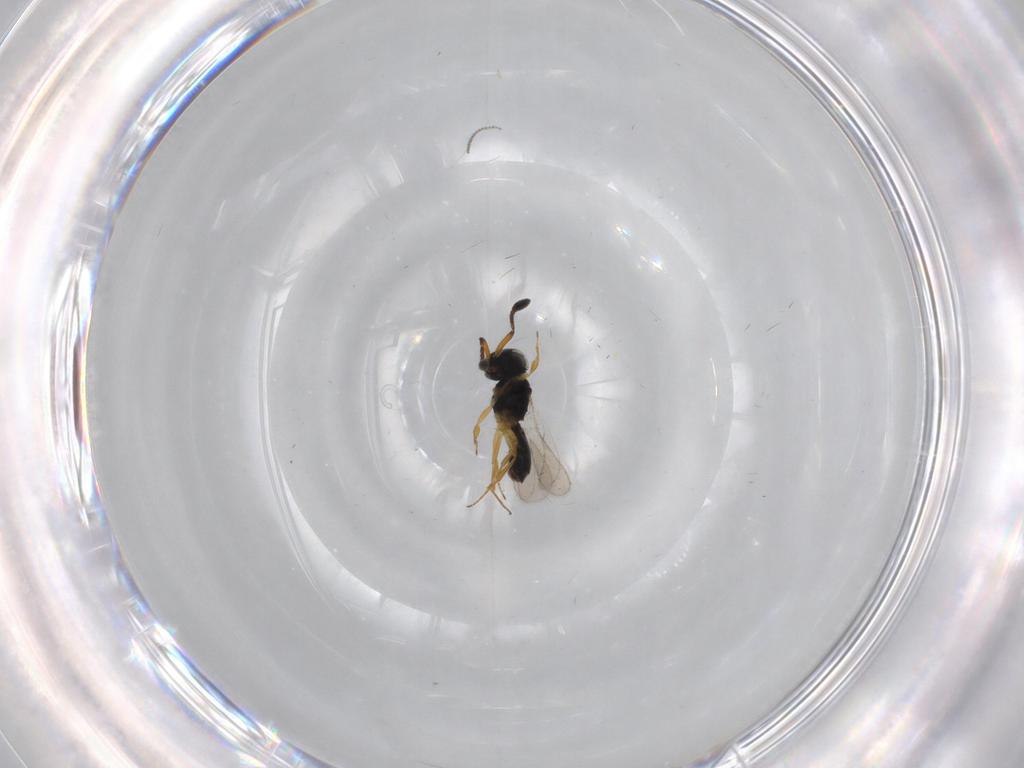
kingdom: Animalia
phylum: Arthropoda
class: Insecta
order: Hymenoptera
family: Scelionidae
